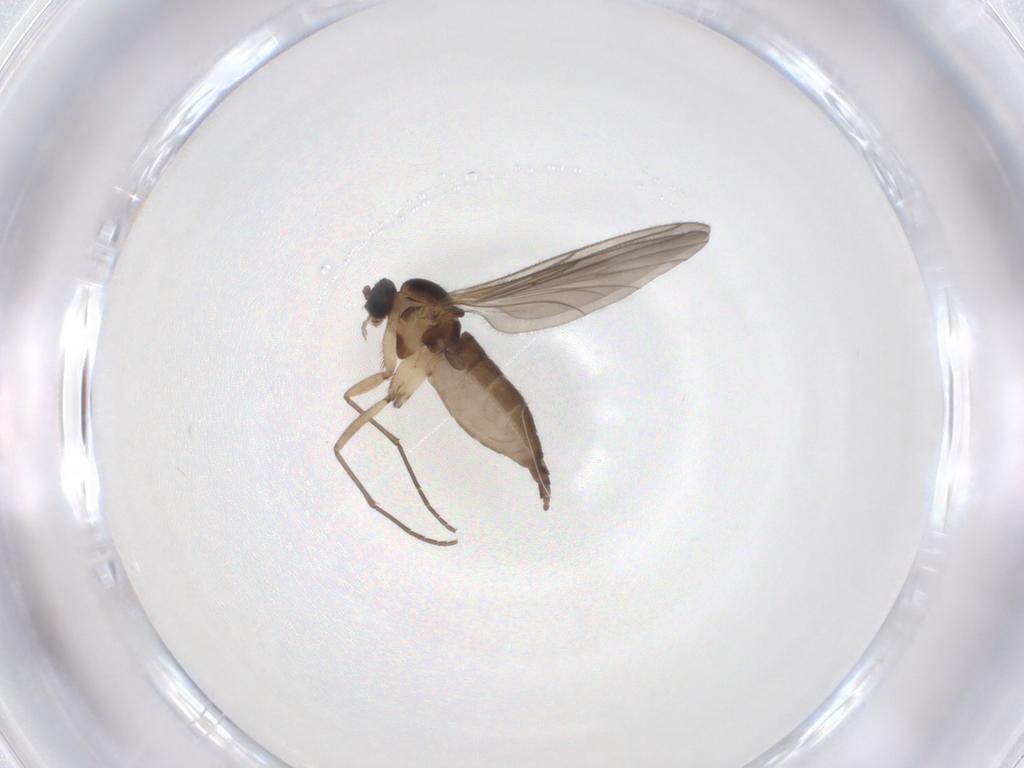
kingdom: Animalia
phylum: Arthropoda
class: Insecta
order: Diptera
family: Sciaridae
